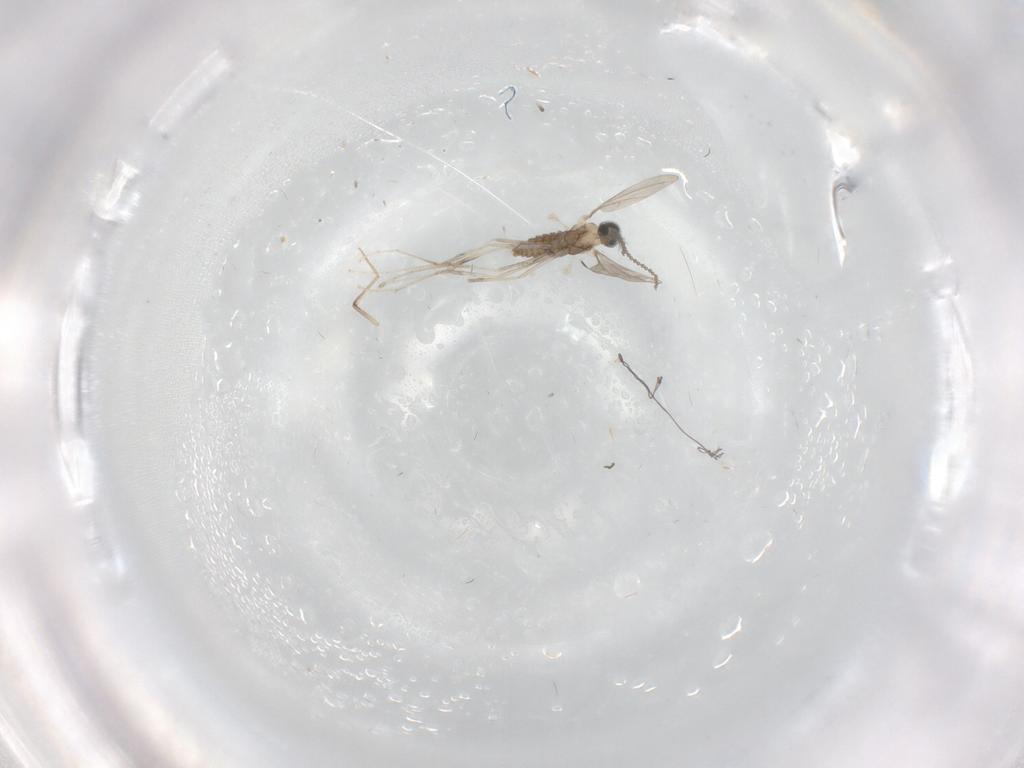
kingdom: Animalia
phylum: Arthropoda
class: Insecta
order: Diptera
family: Cecidomyiidae
